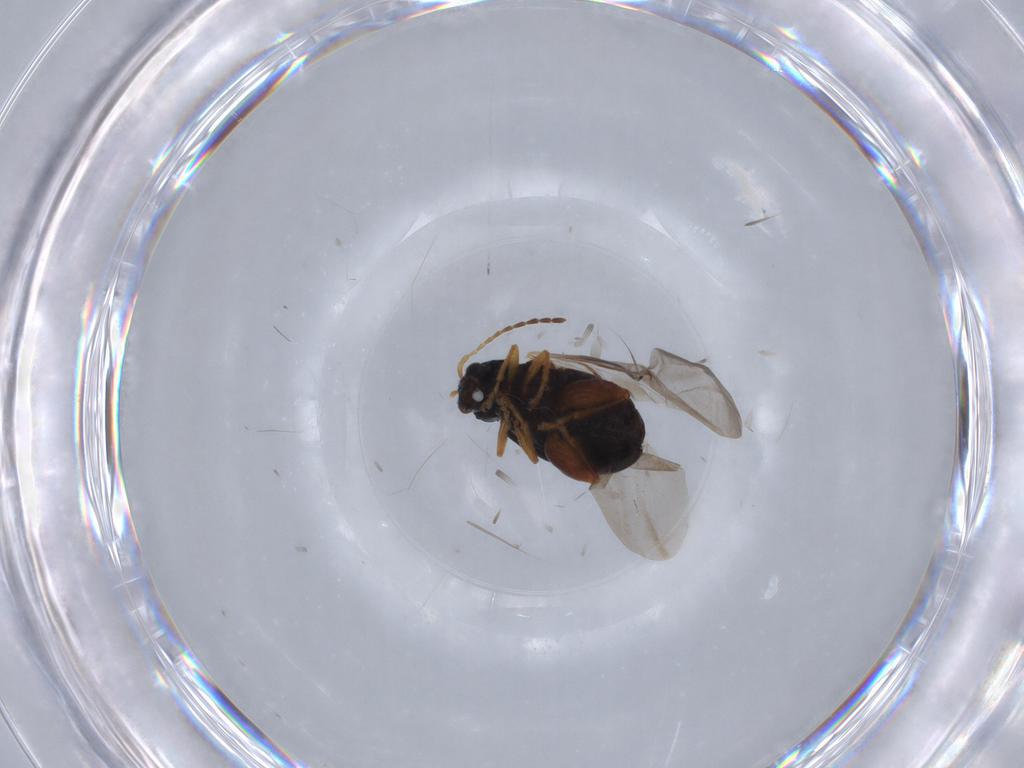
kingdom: Animalia
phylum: Arthropoda
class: Insecta
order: Coleoptera
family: Chrysomelidae
